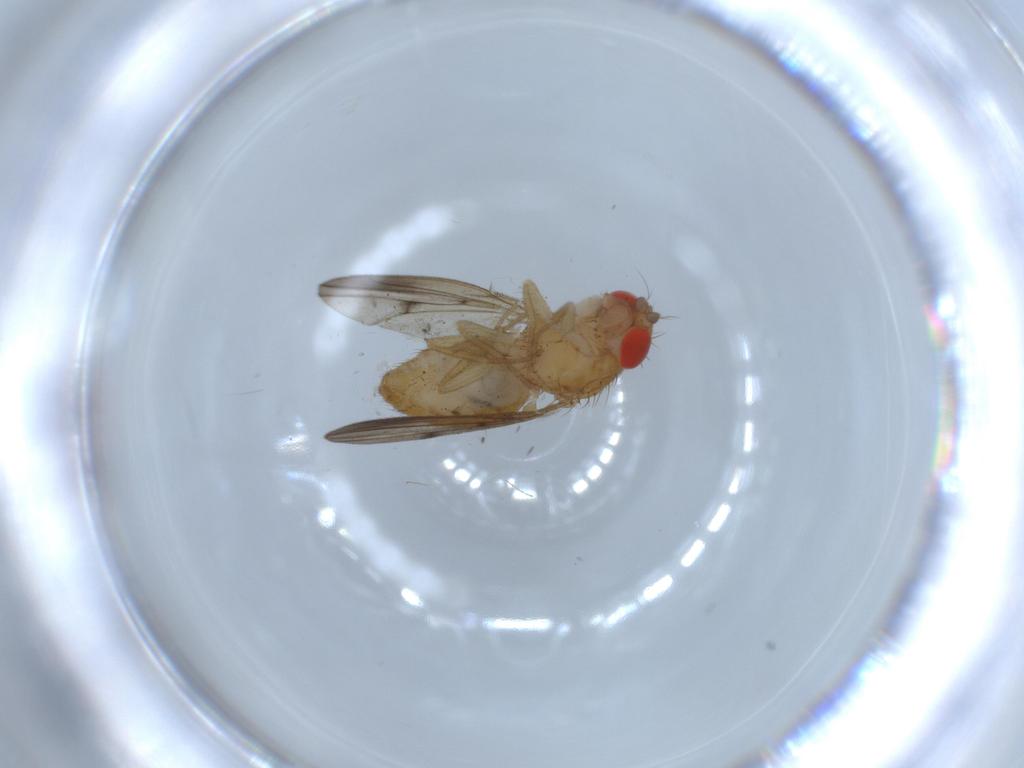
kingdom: Animalia
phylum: Arthropoda
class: Insecta
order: Diptera
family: Drosophilidae
